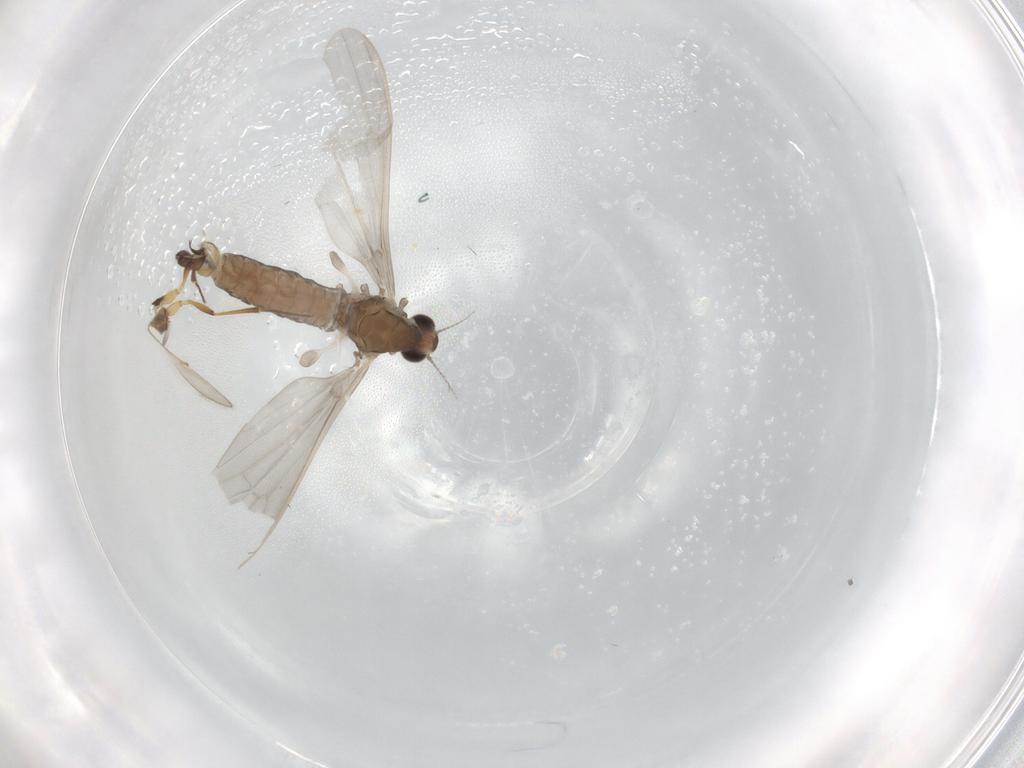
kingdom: Animalia
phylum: Arthropoda
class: Insecta
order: Diptera
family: Cecidomyiidae
